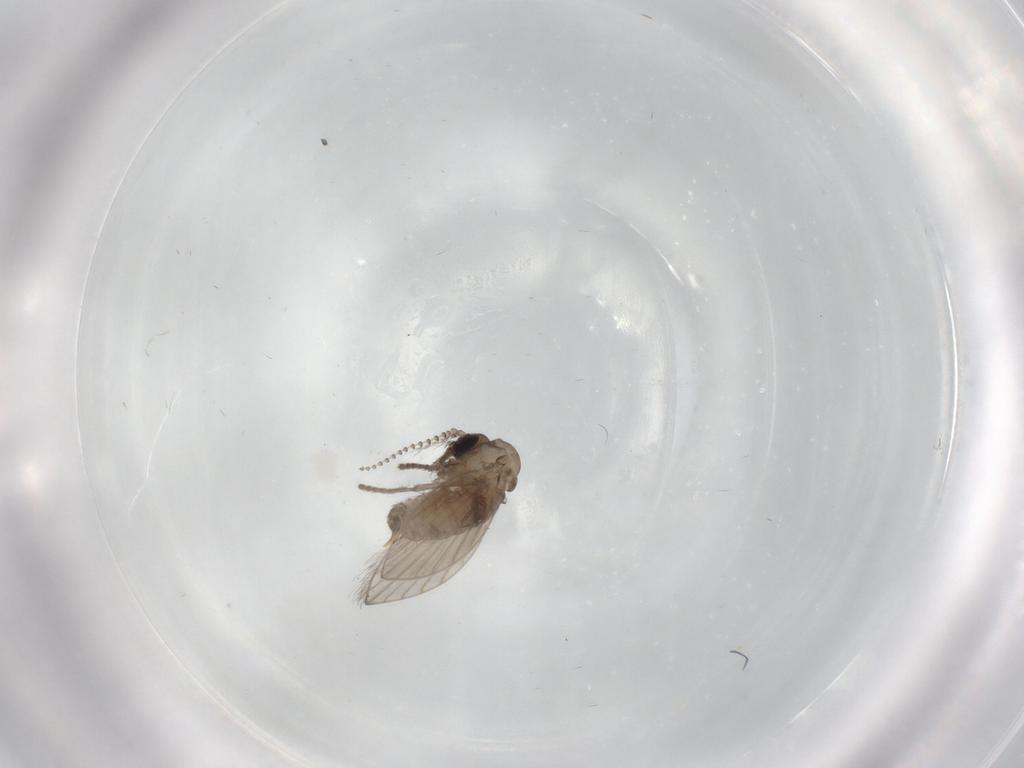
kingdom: Animalia
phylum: Arthropoda
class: Insecta
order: Diptera
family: Psychodidae
